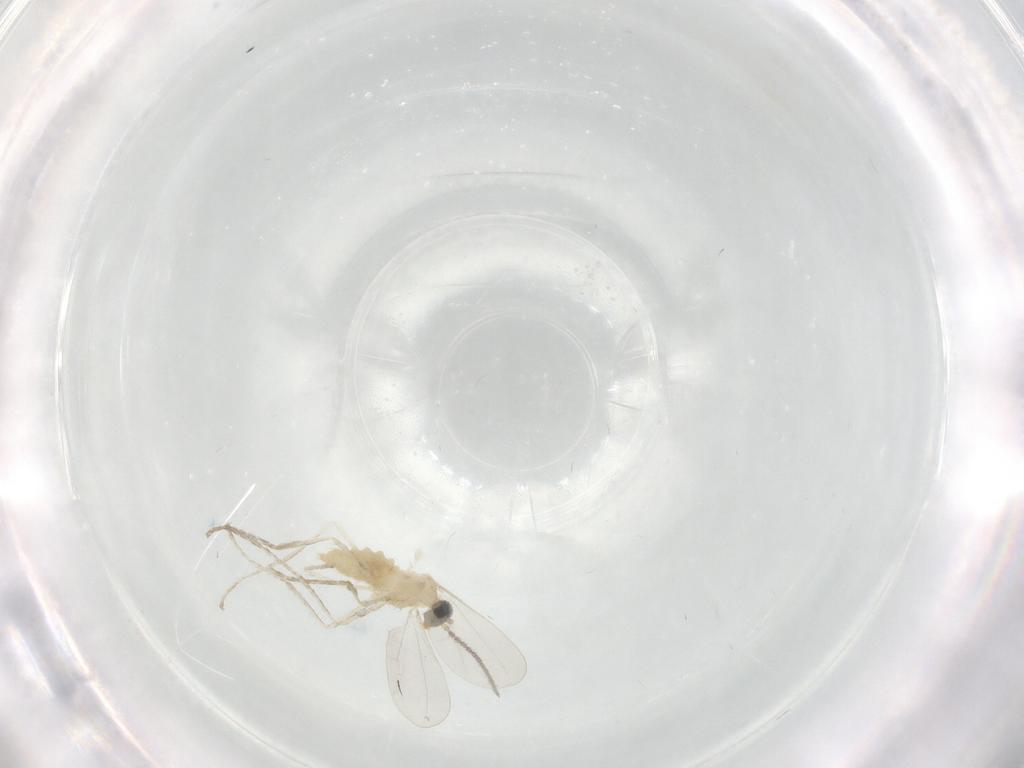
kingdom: Animalia
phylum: Arthropoda
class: Insecta
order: Diptera
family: Cecidomyiidae
